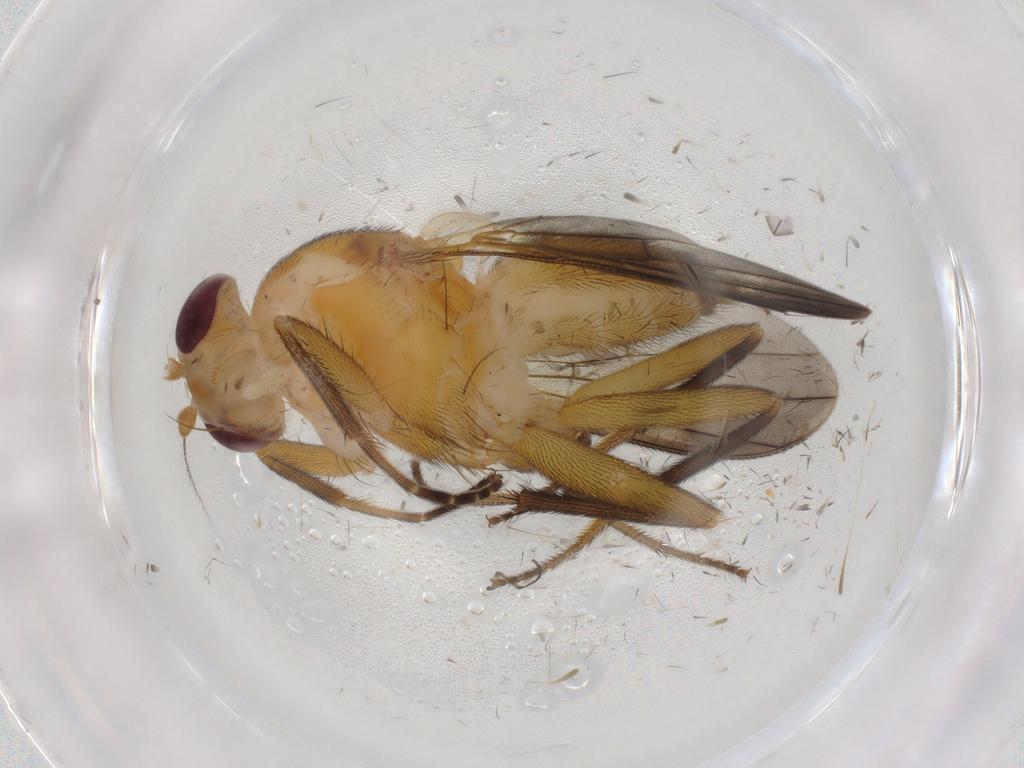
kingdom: Animalia
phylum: Arthropoda
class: Insecta
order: Diptera
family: Clusiidae
